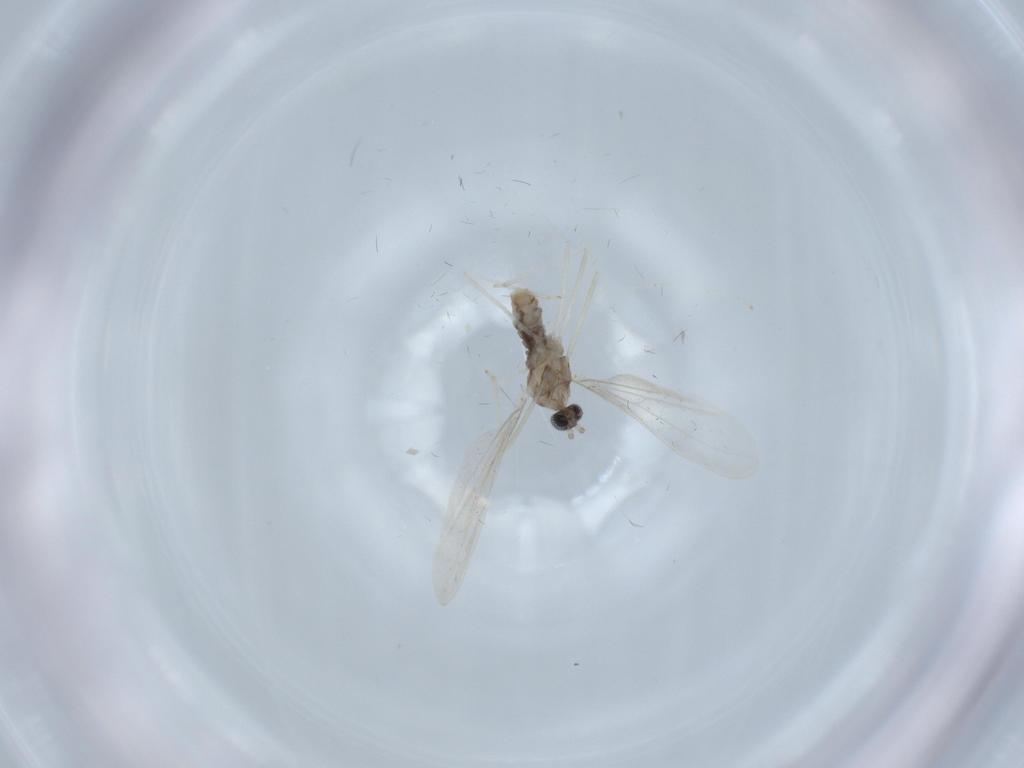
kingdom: Animalia
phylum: Arthropoda
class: Insecta
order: Diptera
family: Cecidomyiidae
